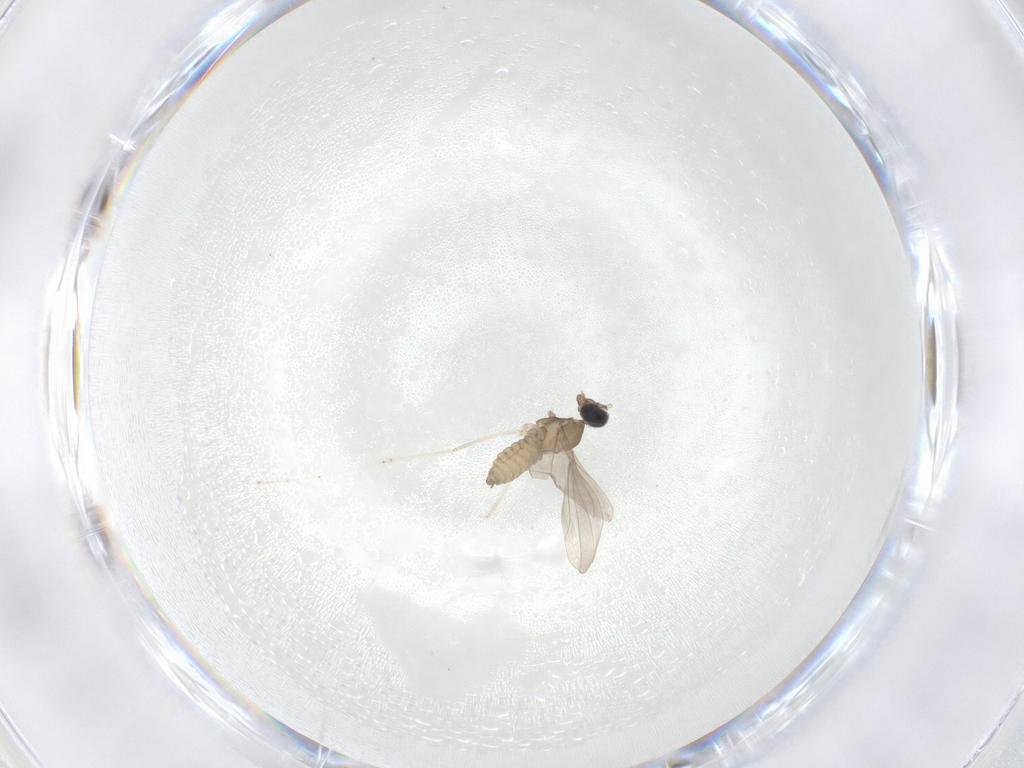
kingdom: Animalia
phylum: Arthropoda
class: Insecta
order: Diptera
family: Cecidomyiidae
